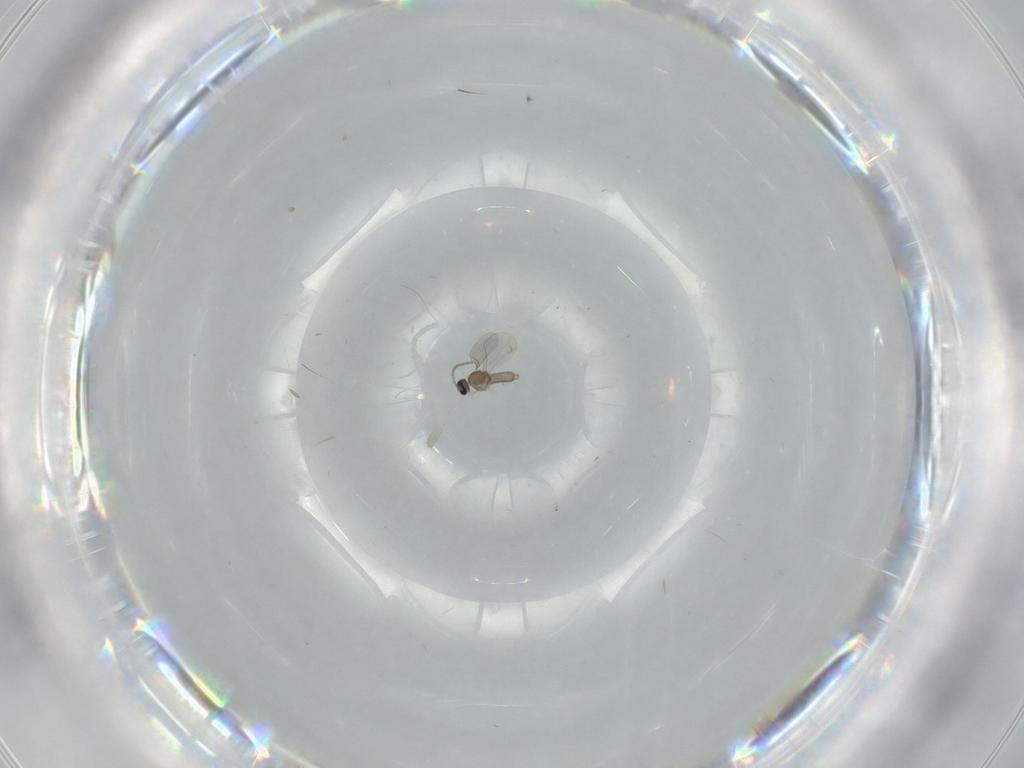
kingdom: Animalia
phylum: Arthropoda
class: Insecta
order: Diptera
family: Cecidomyiidae
